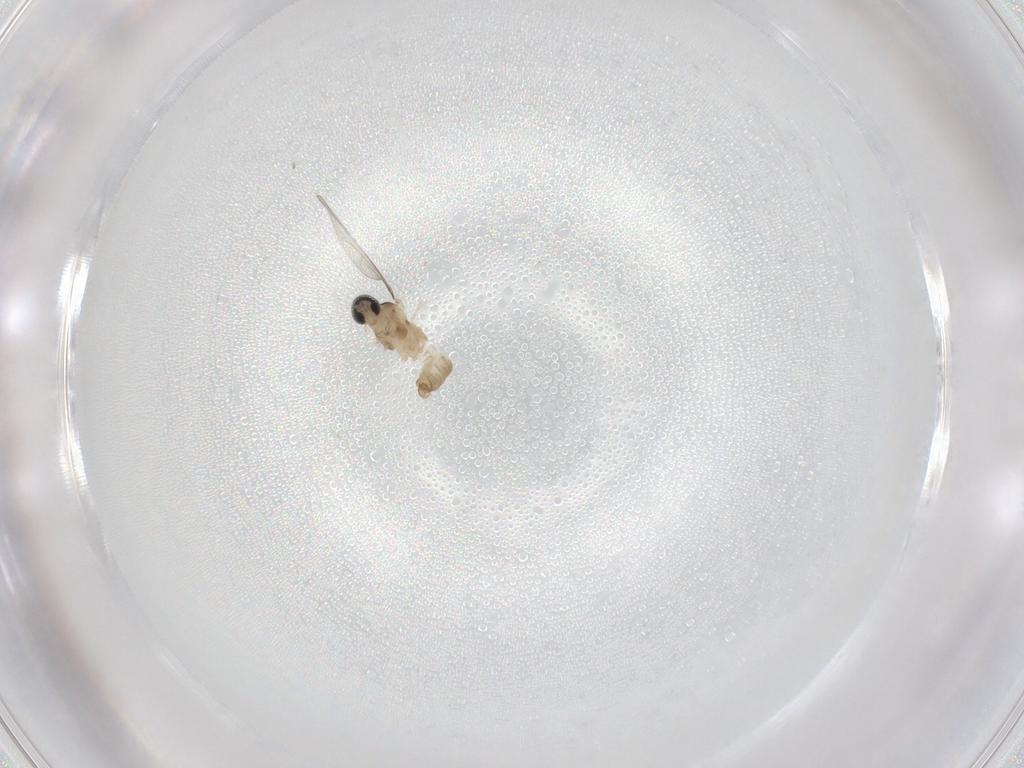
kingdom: Animalia
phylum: Arthropoda
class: Insecta
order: Diptera
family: Cecidomyiidae
